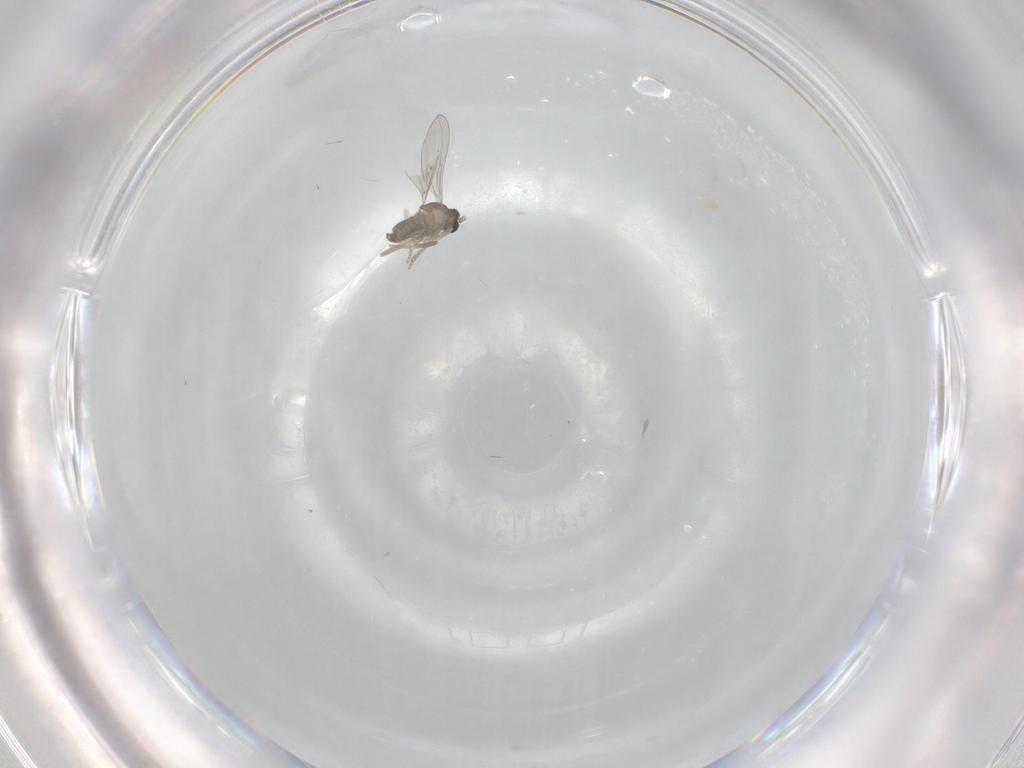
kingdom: Animalia
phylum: Arthropoda
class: Insecta
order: Diptera
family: Cecidomyiidae
